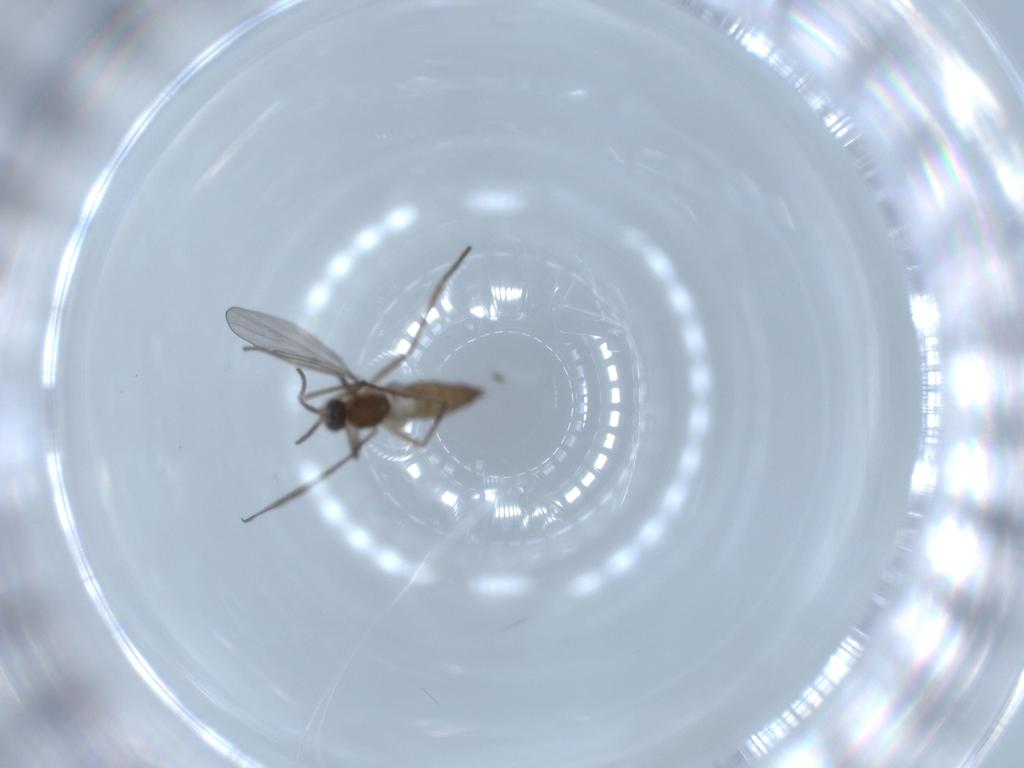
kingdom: Animalia
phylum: Arthropoda
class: Insecta
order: Diptera
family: Cecidomyiidae
